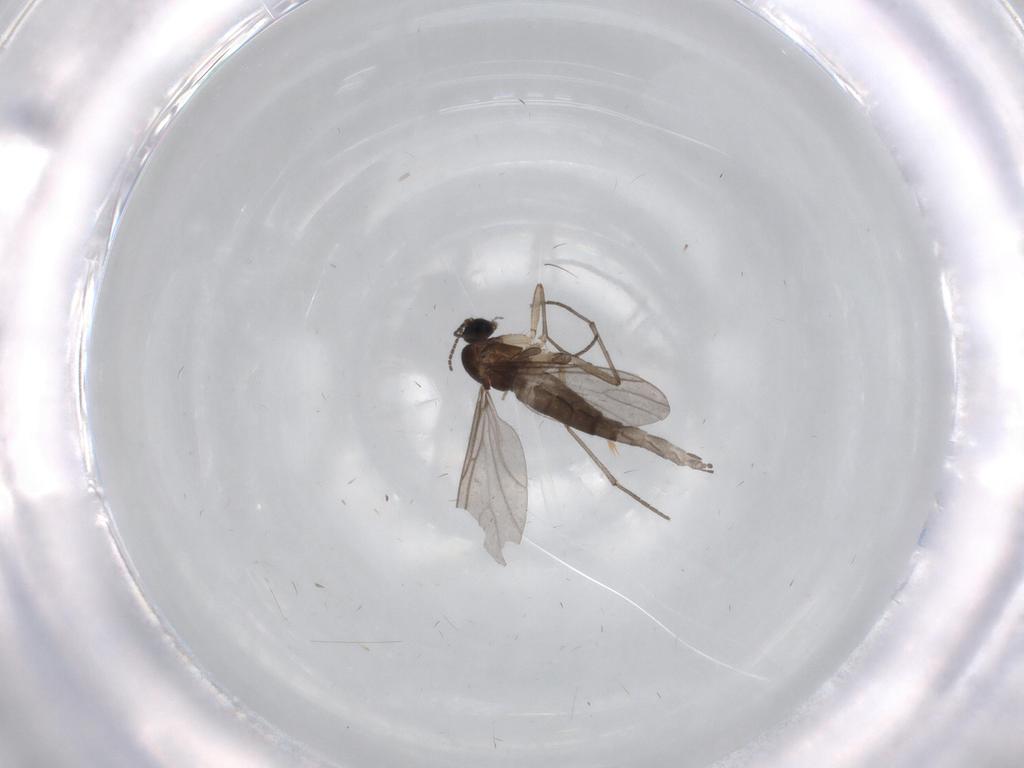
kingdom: Animalia
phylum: Arthropoda
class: Insecta
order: Diptera
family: Sciaridae
